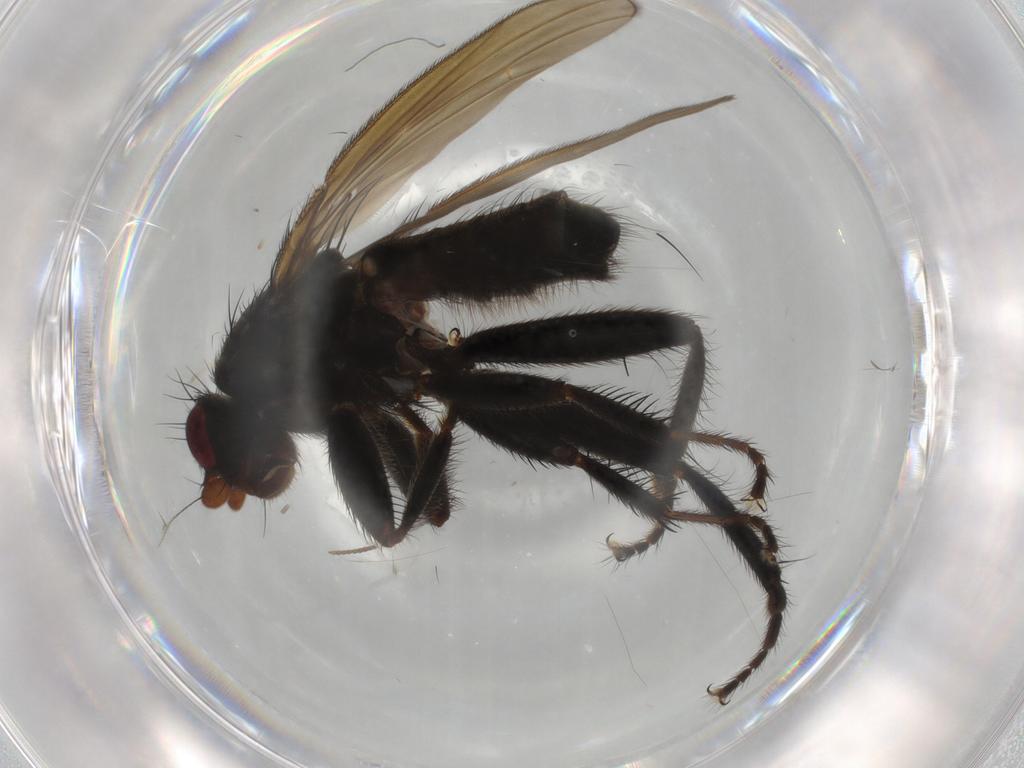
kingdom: Animalia
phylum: Arthropoda
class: Insecta
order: Diptera
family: Sphaeroceridae
